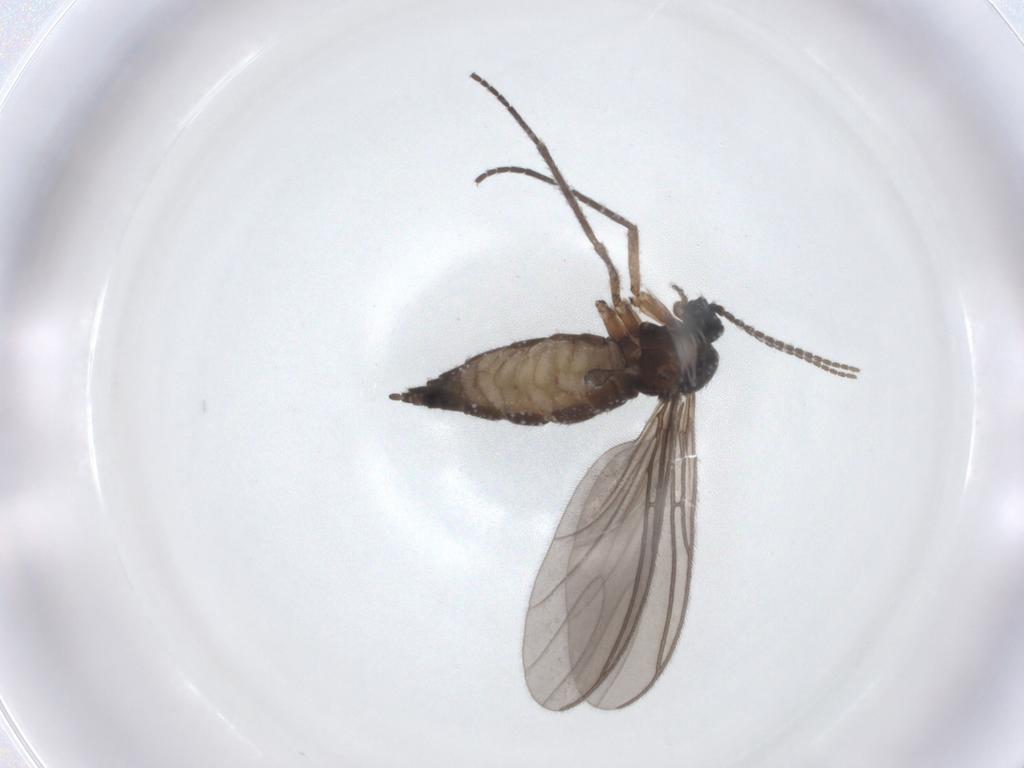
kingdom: Animalia
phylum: Arthropoda
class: Insecta
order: Diptera
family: Sciaridae
